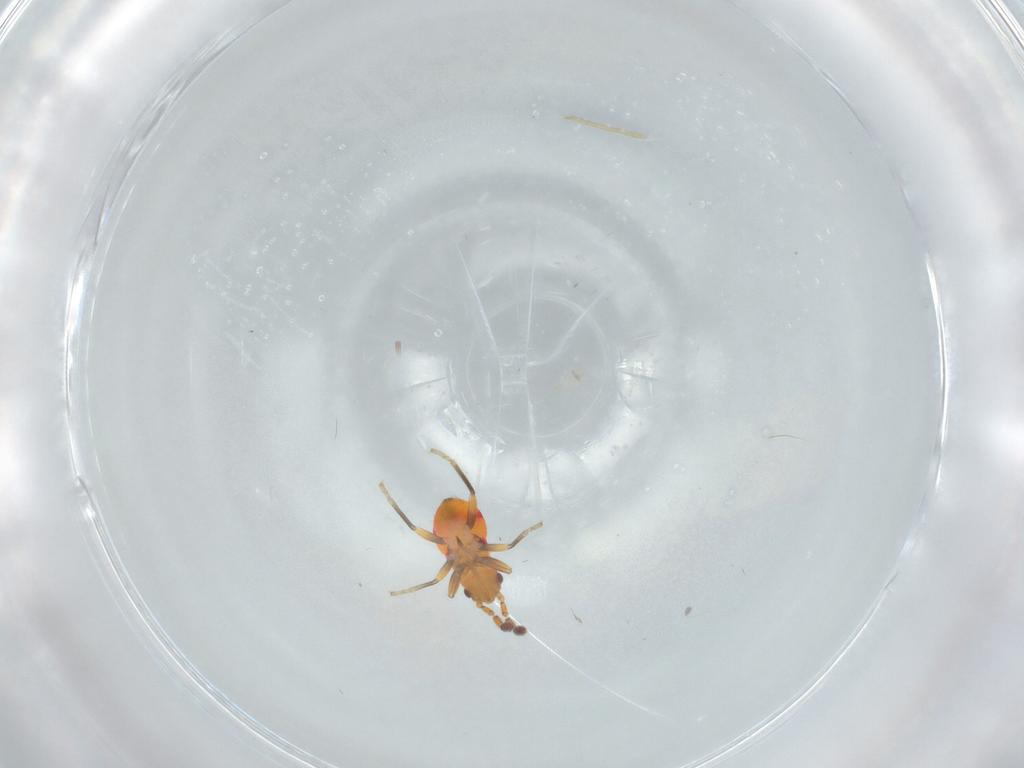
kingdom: Animalia
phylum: Arthropoda
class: Insecta
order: Hemiptera
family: Rhyparochromidae
